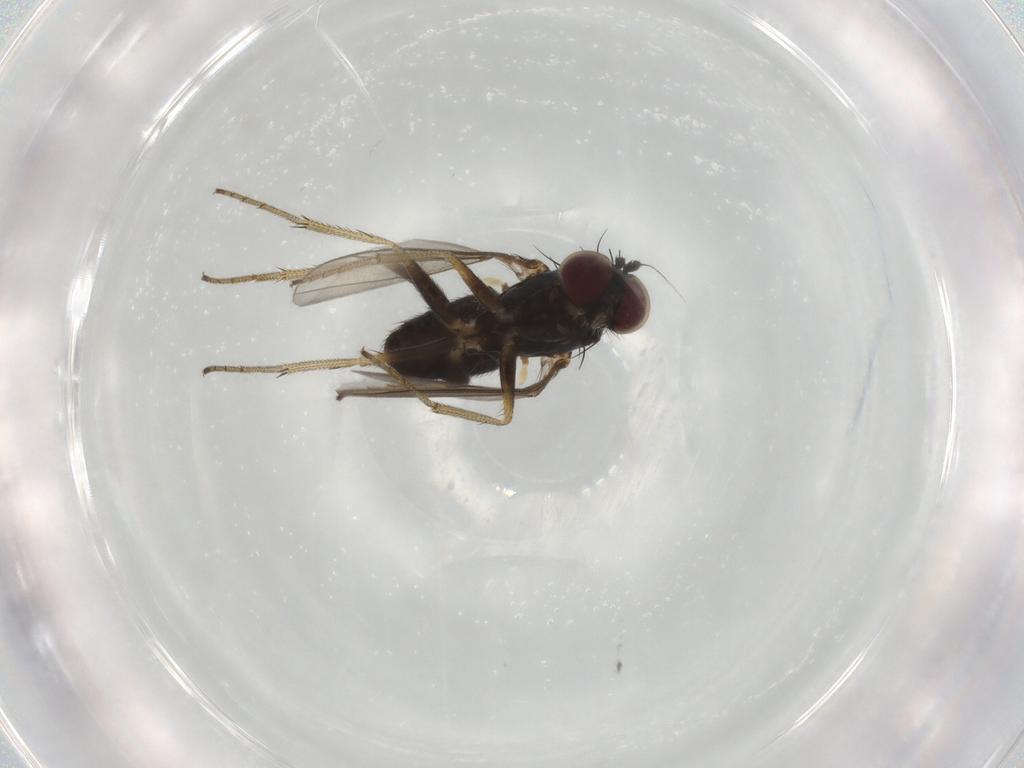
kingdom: Animalia
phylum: Arthropoda
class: Insecta
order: Diptera
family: Dolichopodidae
